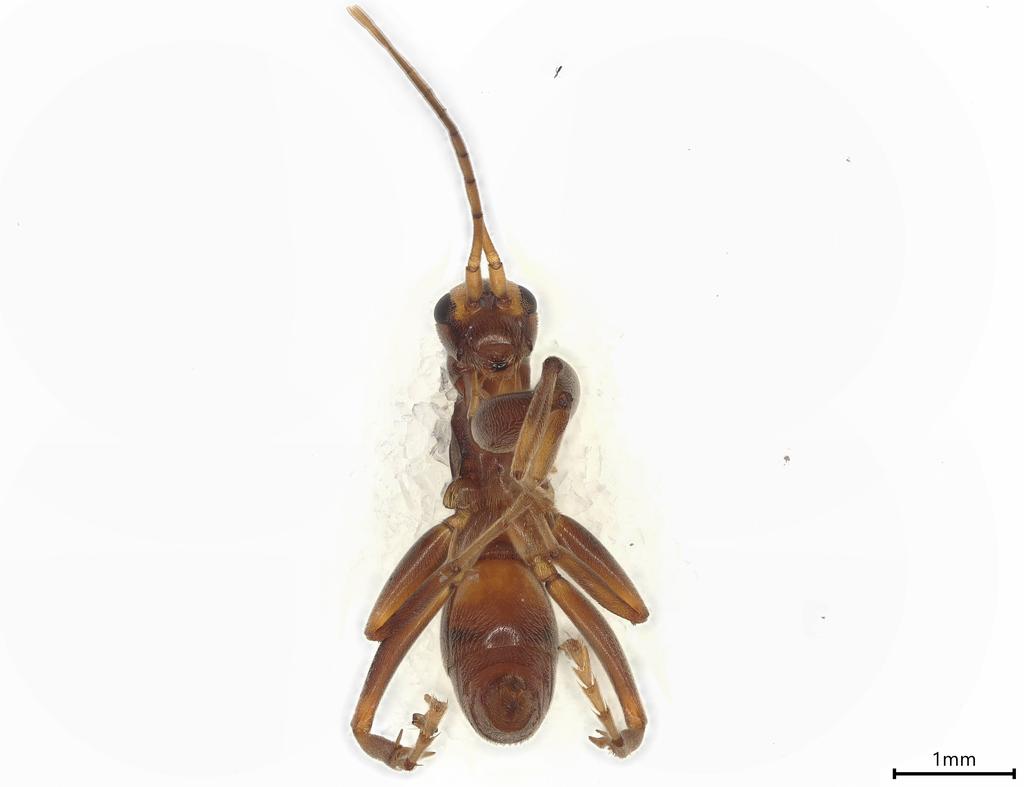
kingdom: Animalia
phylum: Arthropoda
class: Insecta
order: Hymenoptera
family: Rhopalosomatidae
